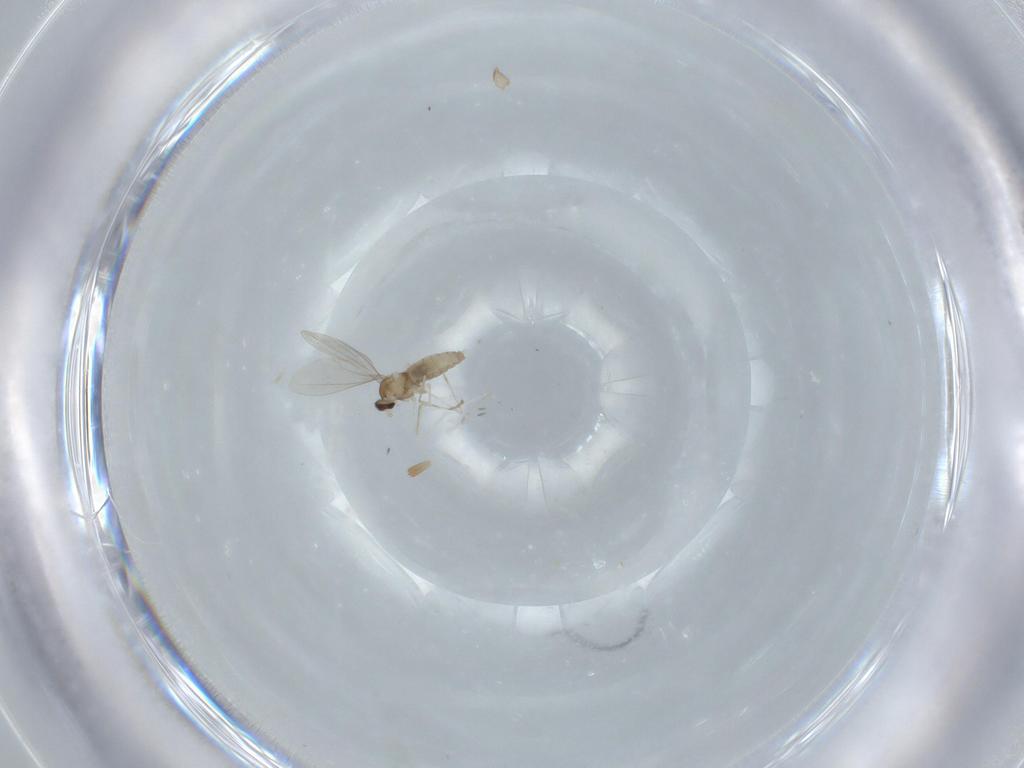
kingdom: Animalia
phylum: Arthropoda
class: Insecta
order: Diptera
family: Cecidomyiidae
